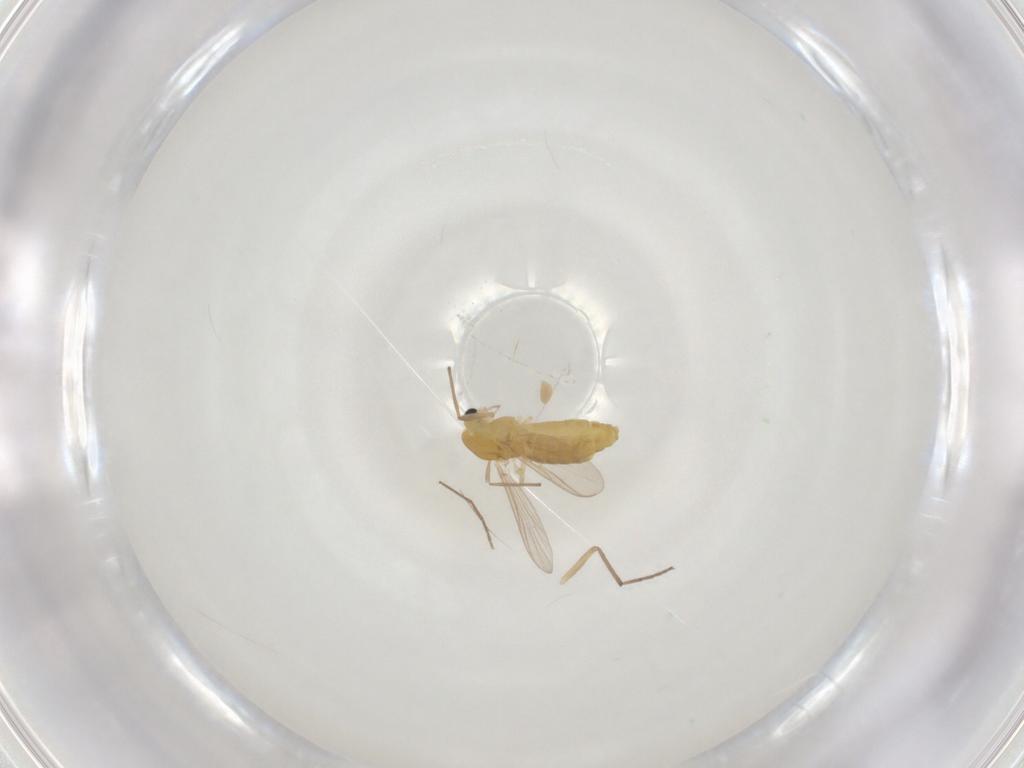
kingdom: Animalia
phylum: Arthropoda
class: Insecta
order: Diptera
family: Chironomidae
